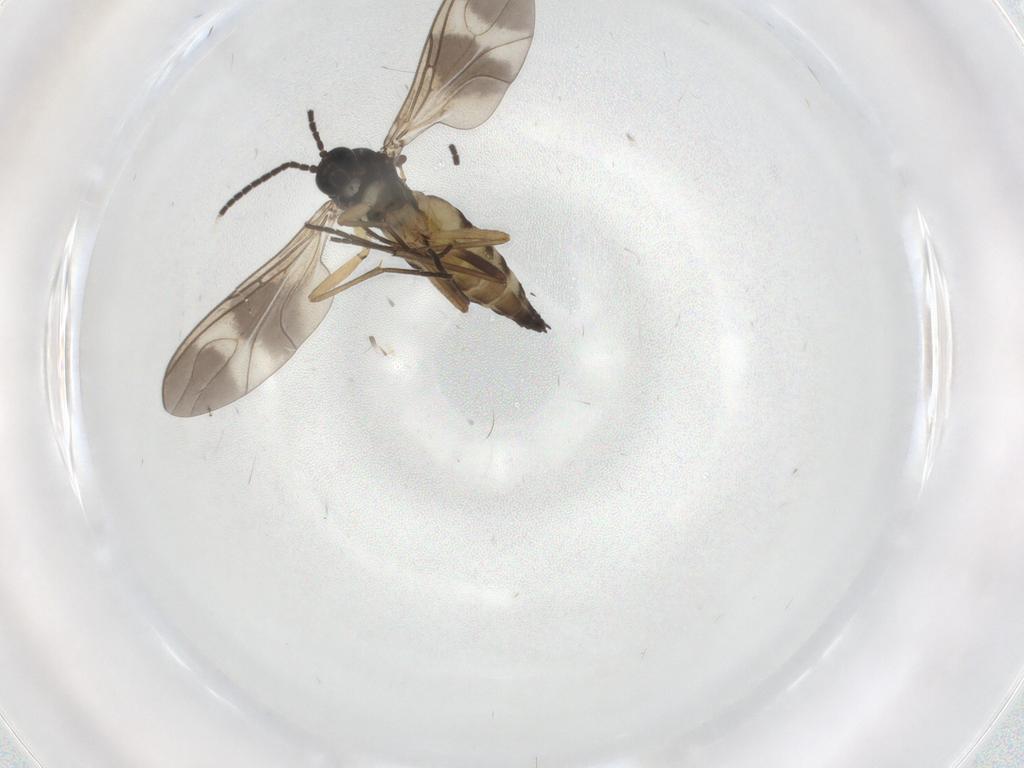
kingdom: Animalia
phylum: Arthropoda
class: Insecta
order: Diptera
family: Sciaridae
